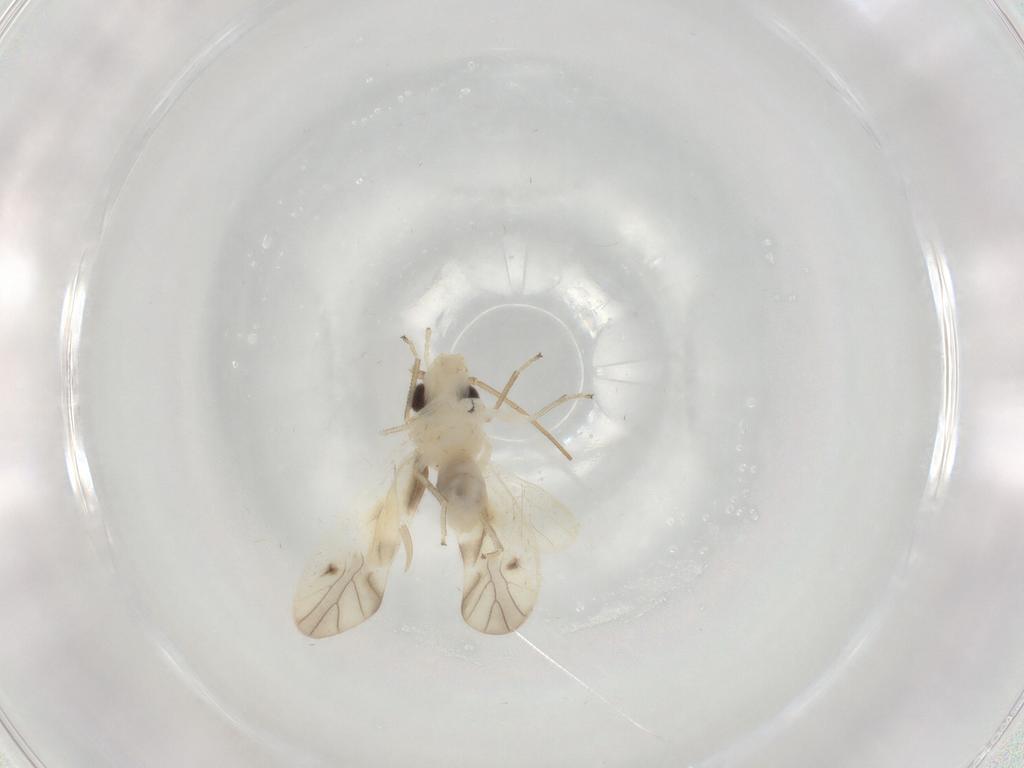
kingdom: Animalia
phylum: Arthropoda
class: Insecta
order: Psocodea
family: Caeciliusidae
